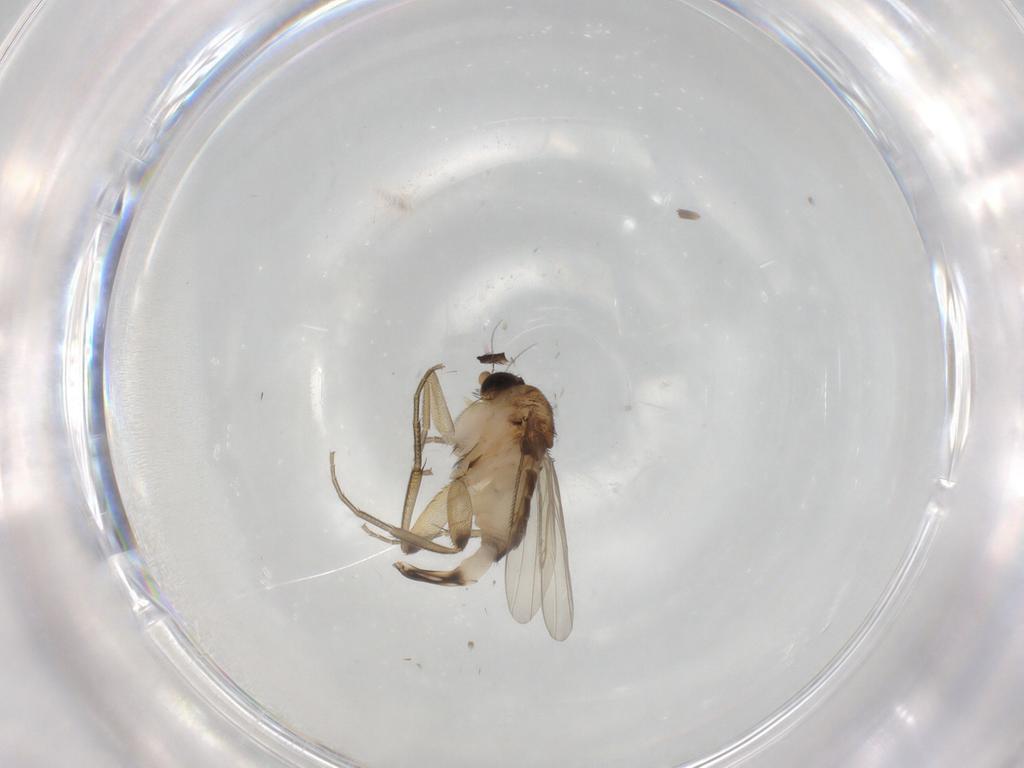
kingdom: Animalia
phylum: Arthropoda
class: Insecta
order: Diptera
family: Phoridae
